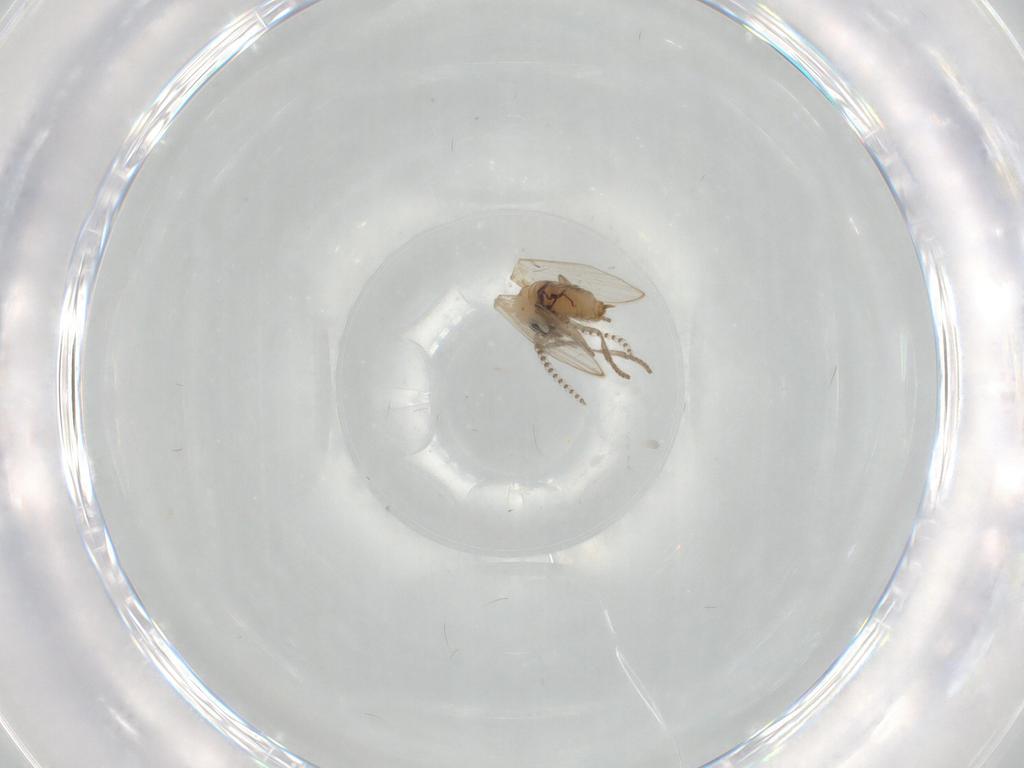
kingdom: Animalia
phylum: Arthropoda
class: Insecta
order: Diptera
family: Psychodidae
